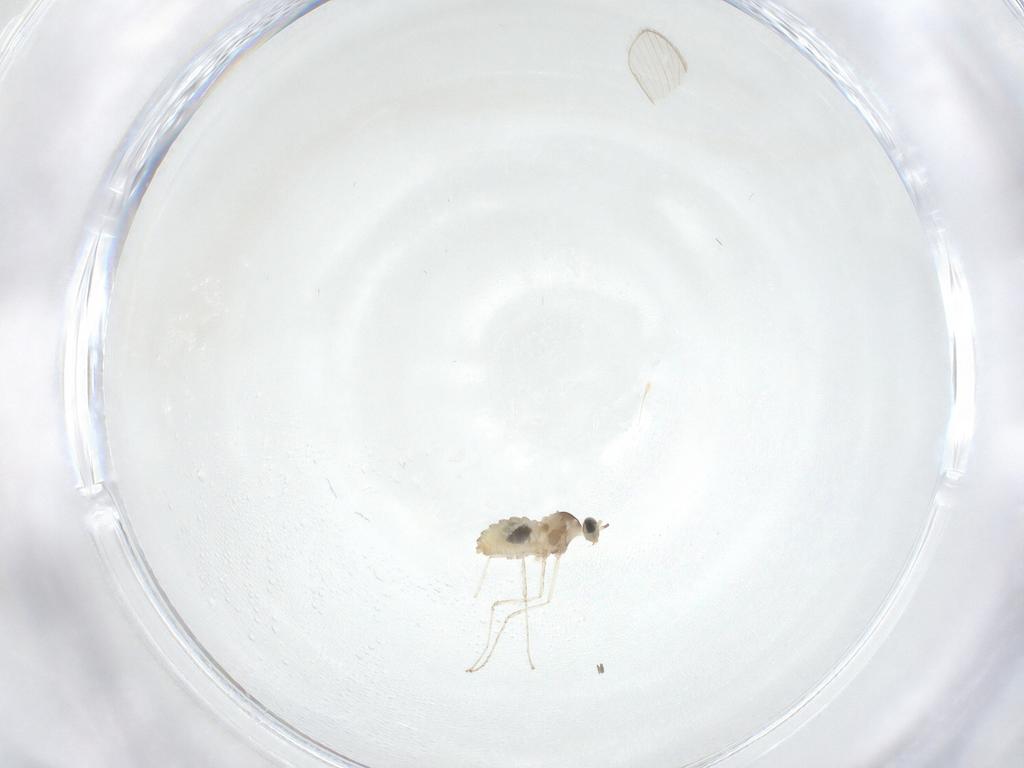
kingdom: Animalia
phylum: Arthropoda
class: Insecta
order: Diptera
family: Cecidomyiidae
